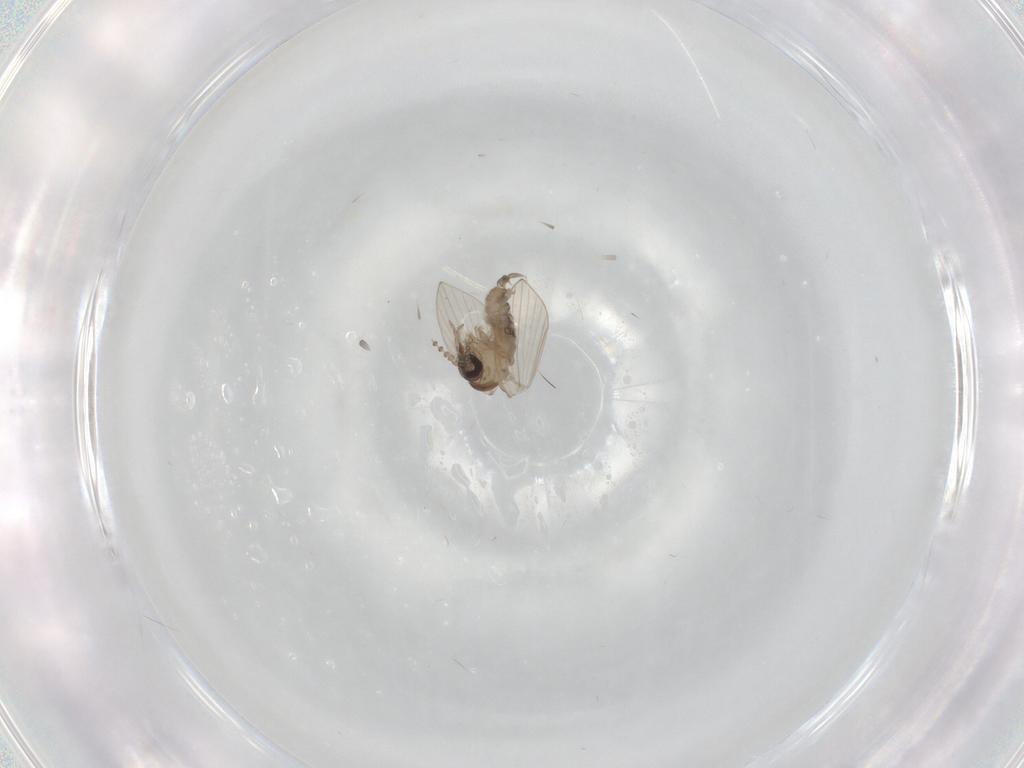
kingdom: Animalia
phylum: Arthropoda
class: Insecta
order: Diptera
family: Psychodidae
